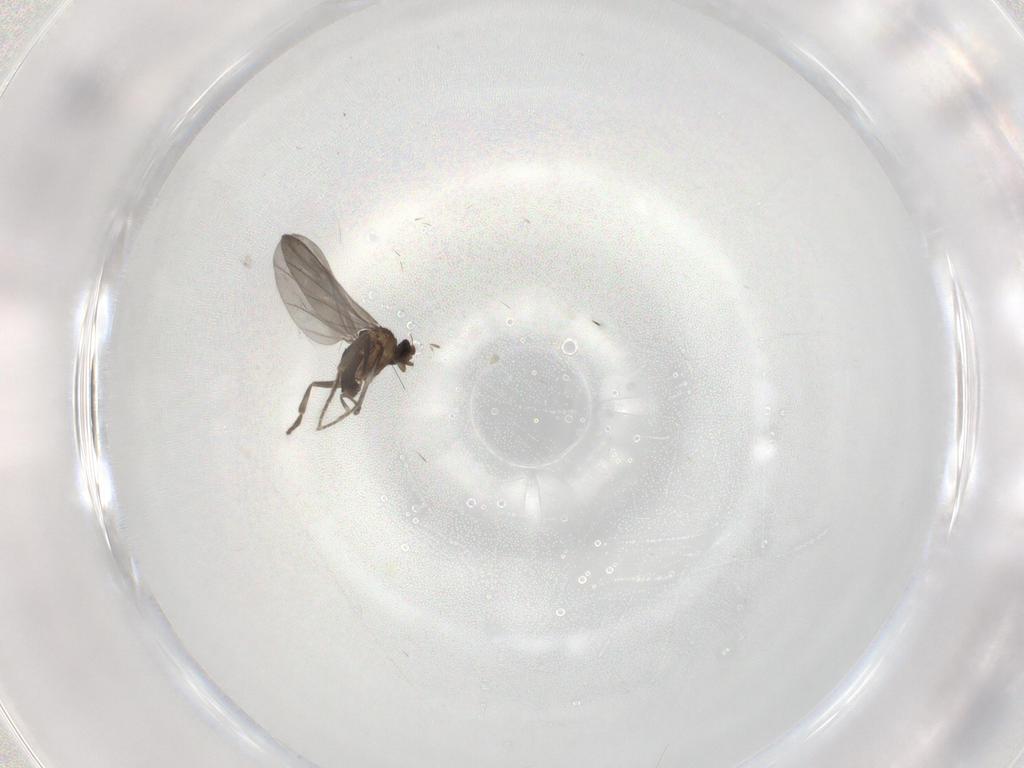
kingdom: Animalia
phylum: Arthropoda
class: Insecta
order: Diptera
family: Phoridae
